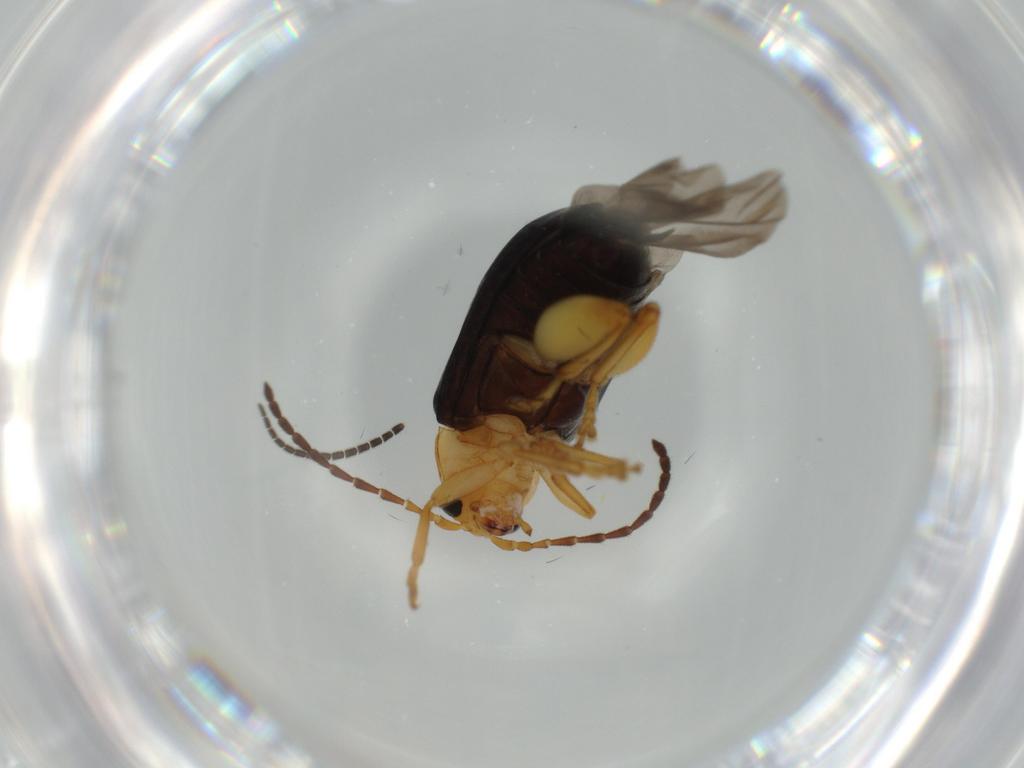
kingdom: Animalia
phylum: Arthropoda
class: Insecta
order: Coleoptera
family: Chrysomelidae
